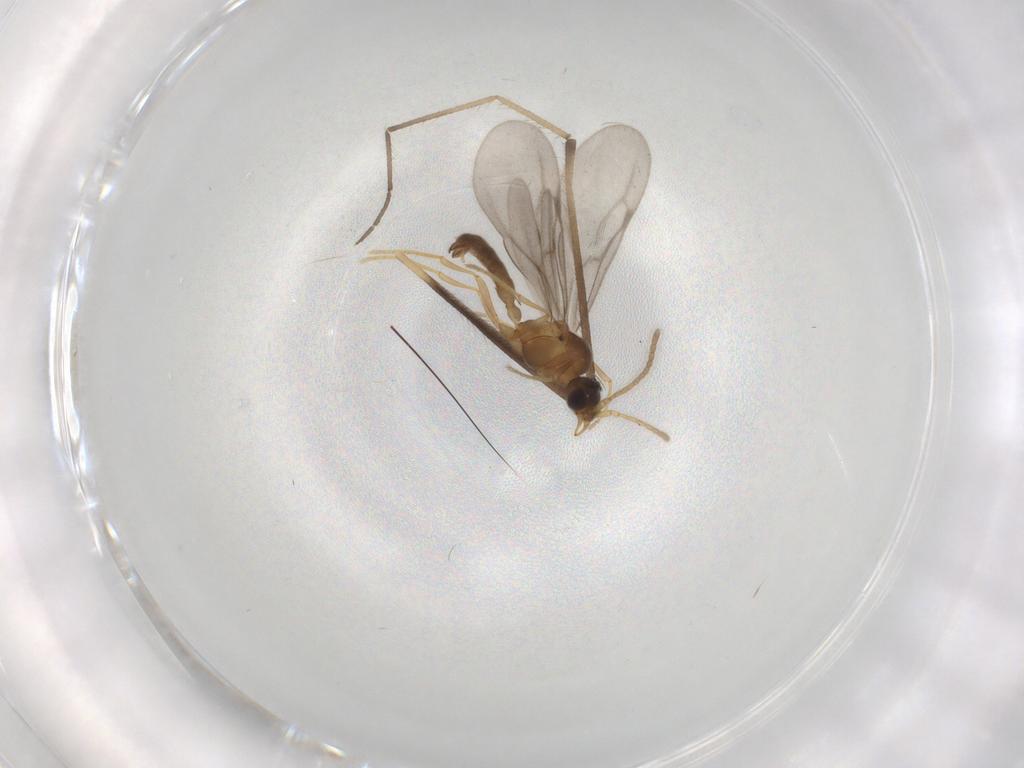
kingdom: Animalia
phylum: Arthropoda
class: Insecta
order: Hymenoptera
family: Formicidae
